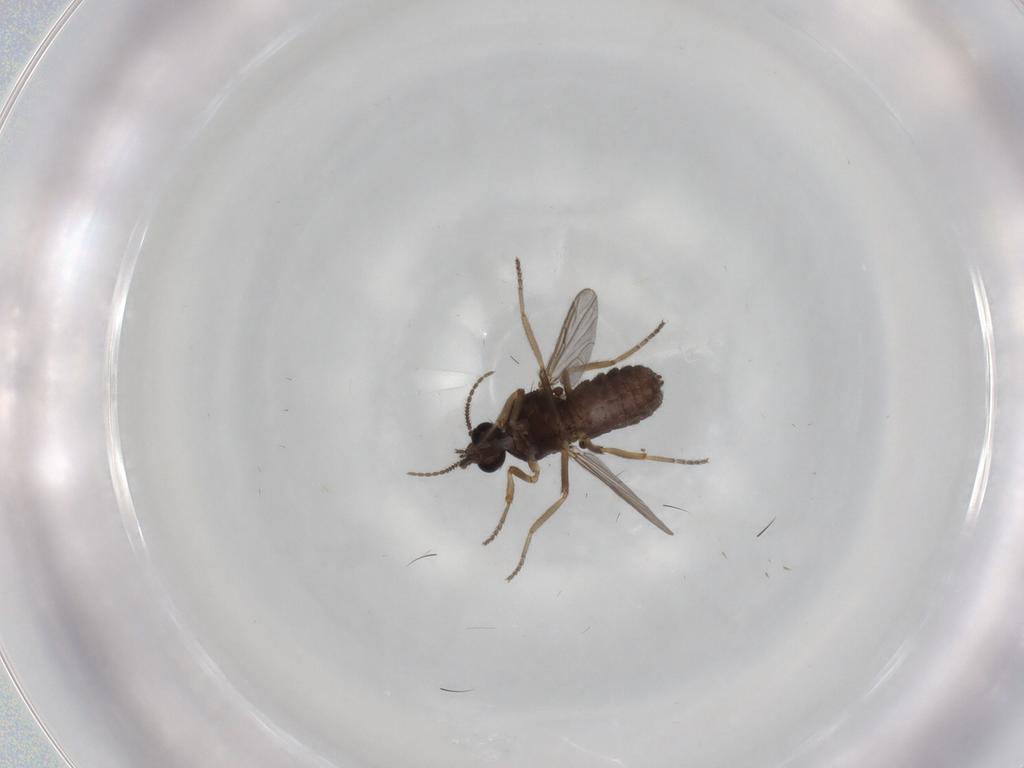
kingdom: Animalia
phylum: Arthropoda
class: Insecta
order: Diptera
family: Ceratopogonidae
